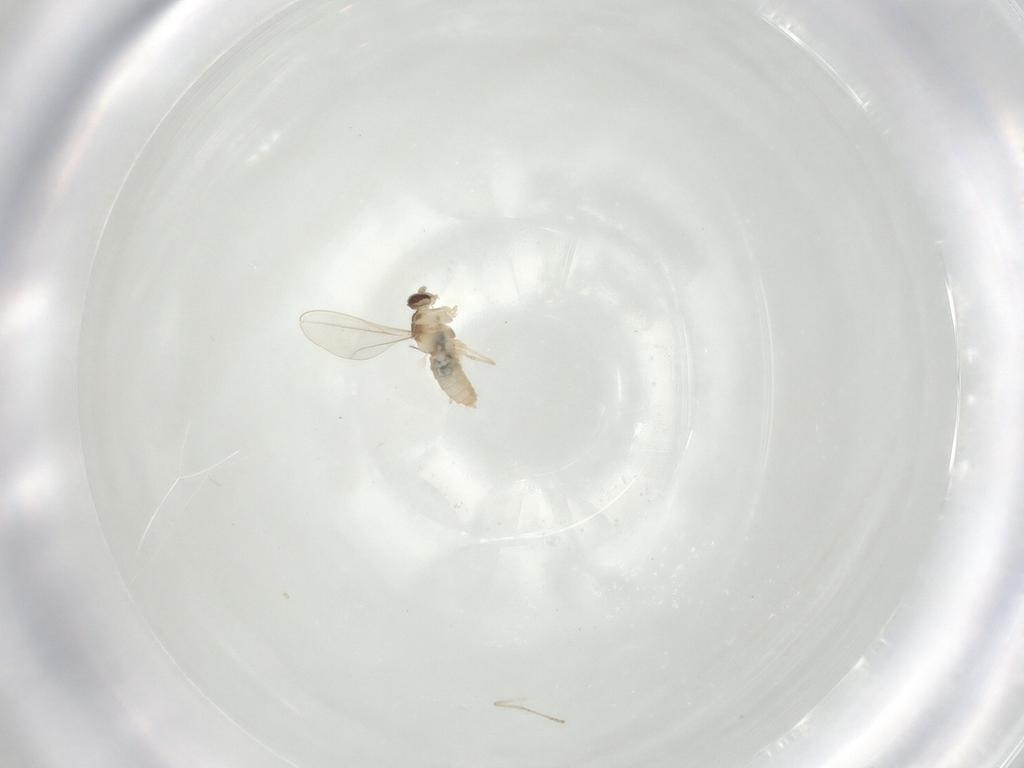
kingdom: Animalia
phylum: Arthropoda
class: Insecta
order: Diptera
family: Cecidomyiidae
